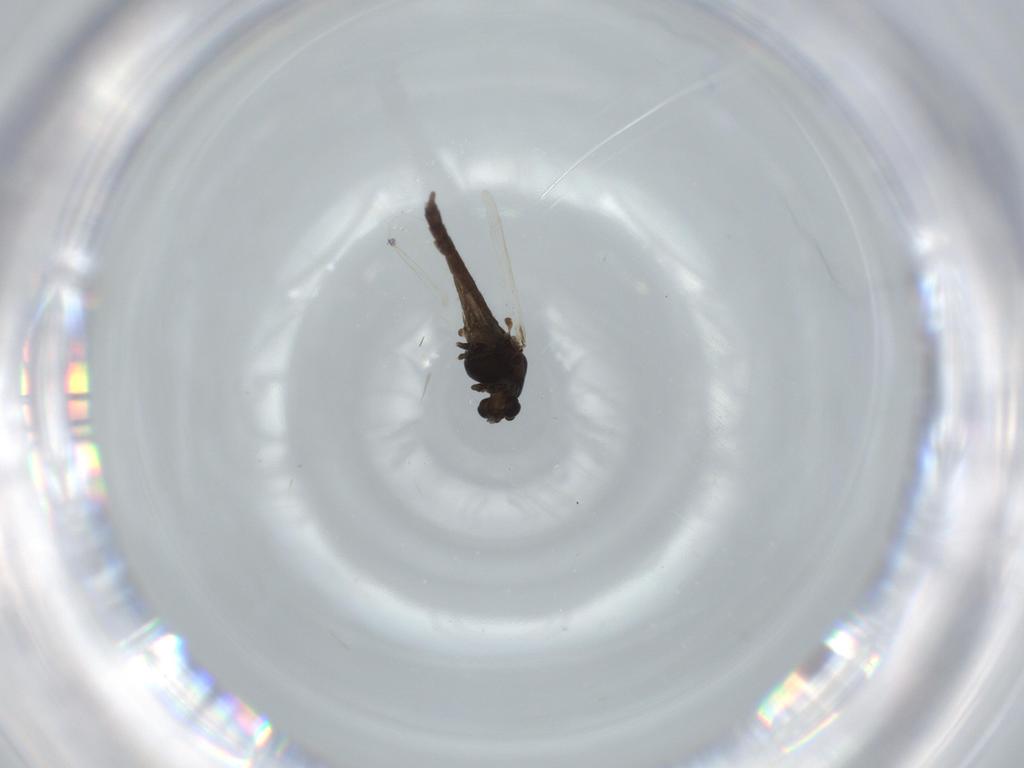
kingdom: Animalia
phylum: Arthropoda
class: Insecta
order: Diptera
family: Chironomidae
